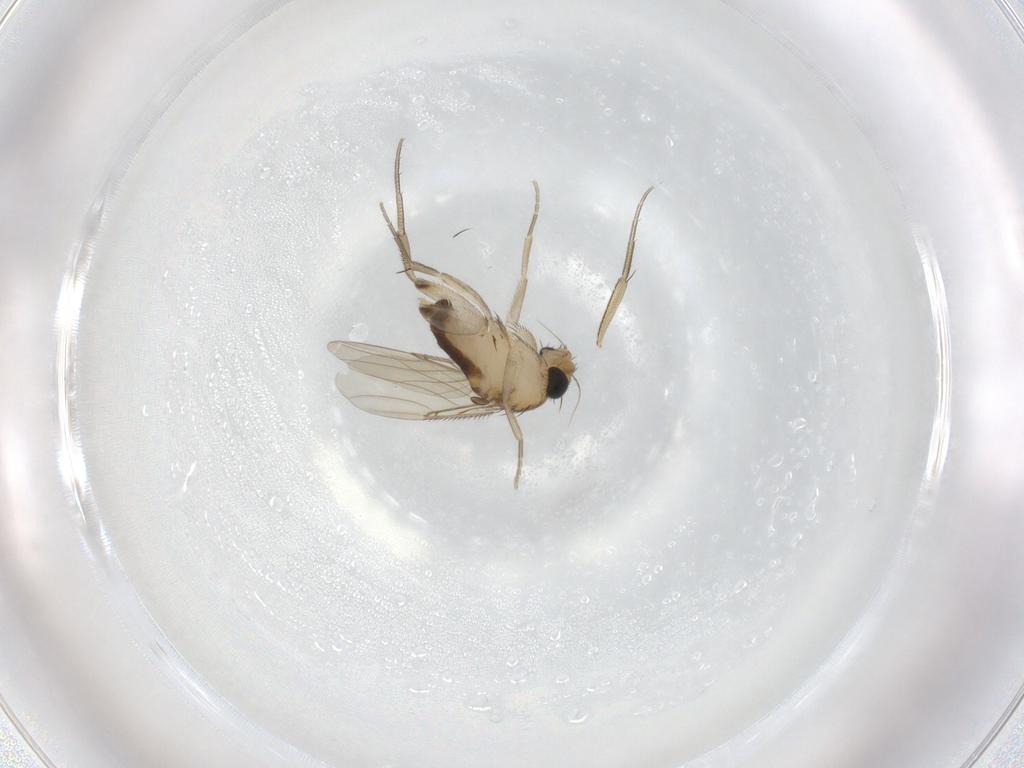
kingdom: Animalia
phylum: Arthropoda
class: Insecta
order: Diptera
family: Phoridae
